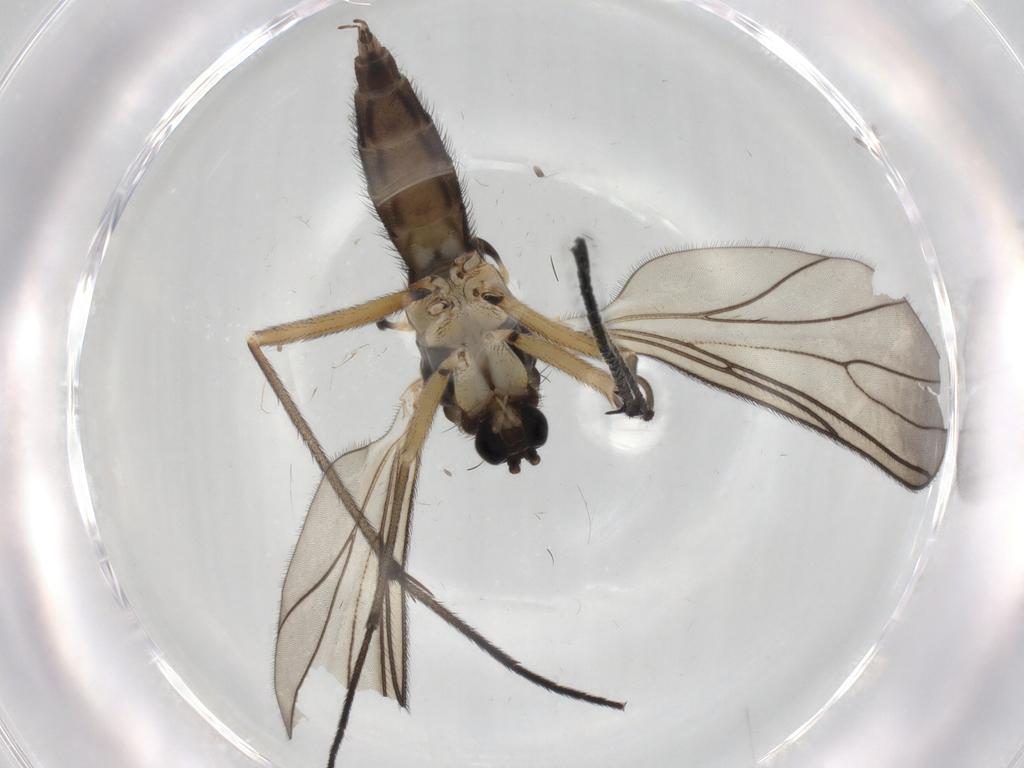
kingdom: Animalia
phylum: Arthropoda
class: Insecta
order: Diptera
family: Sciaridae
